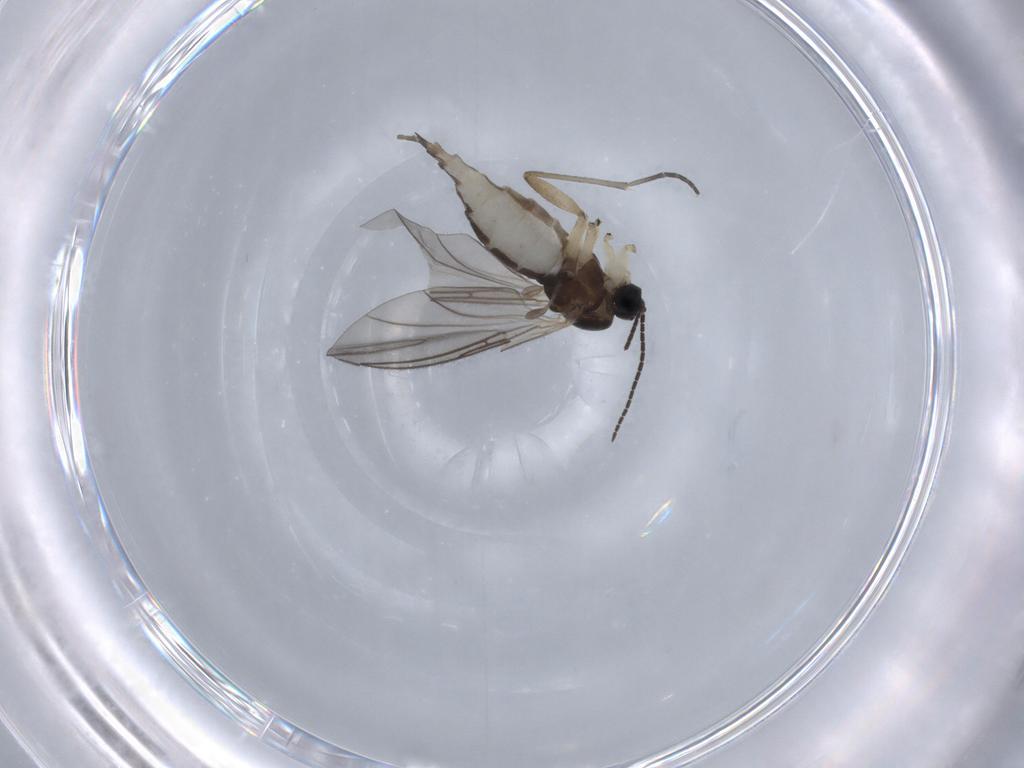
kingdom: Animalia
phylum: Arthropoda
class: Insecta
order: Diptera
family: Sciaridae
